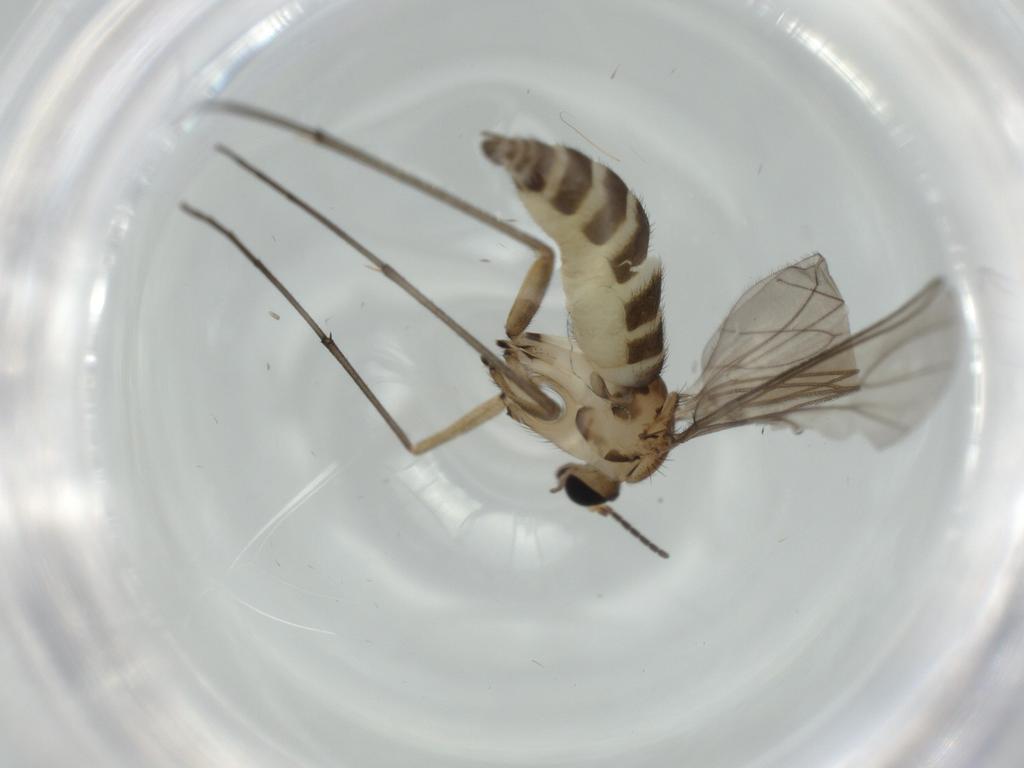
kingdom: Animalia
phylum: Arthropoda
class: Insecta
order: Diptera
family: Sciaridae
